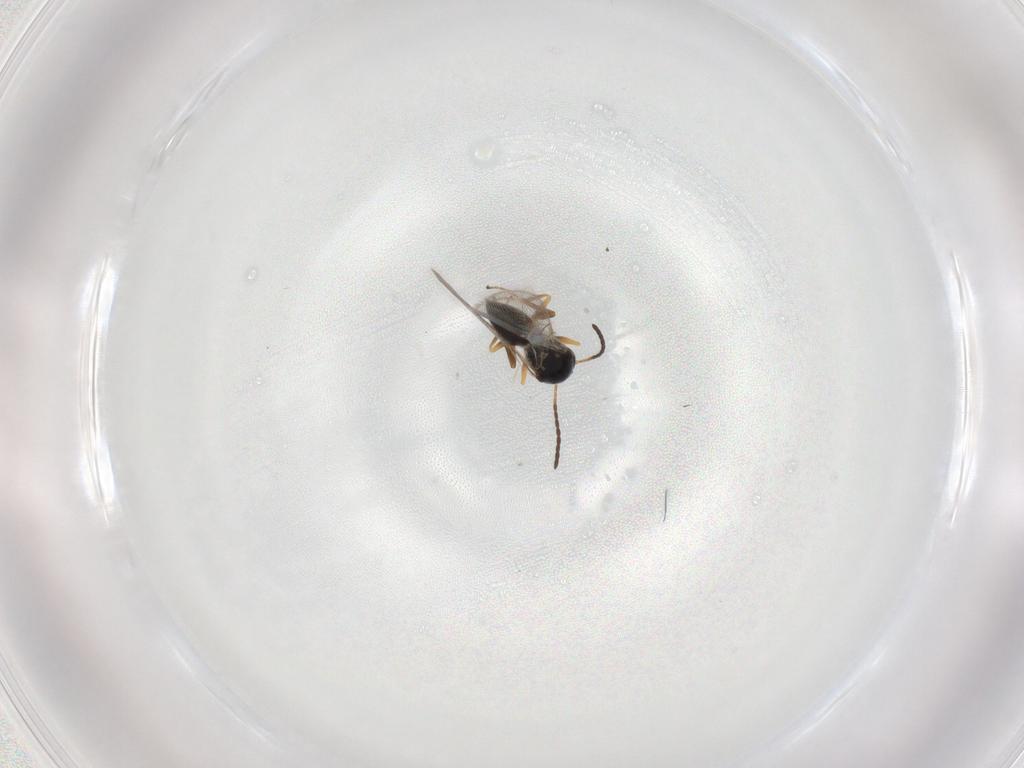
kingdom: Animalia
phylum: Arthropoda
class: Insecta
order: Hymenoptera
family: Figitidae
